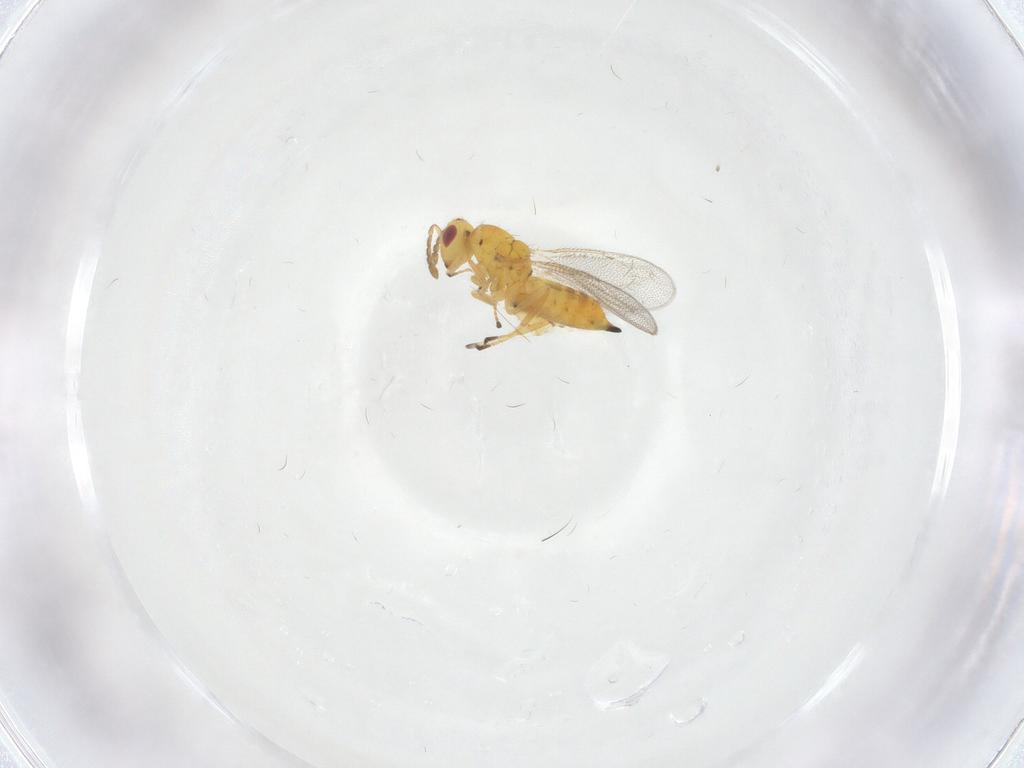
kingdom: Animalia
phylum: Arthropoda
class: Insecta
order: Hymenoptera
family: Eulophidae
